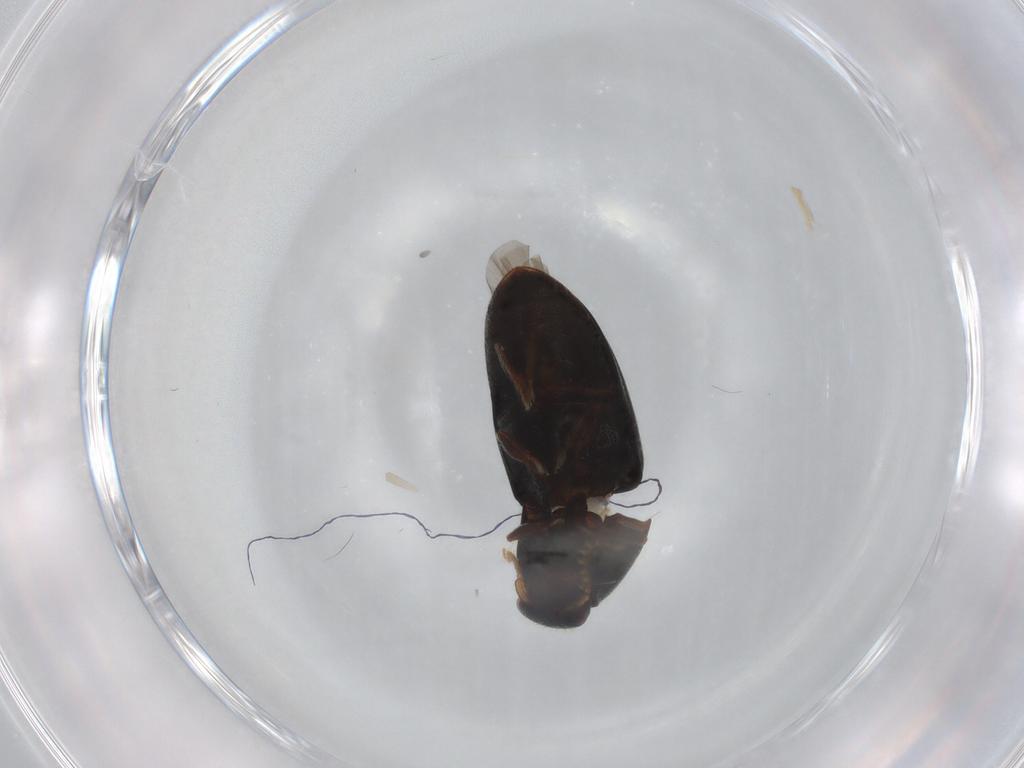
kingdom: Animalia
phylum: Arthropoda
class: Insecta
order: Coleoptera
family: Elateridae
